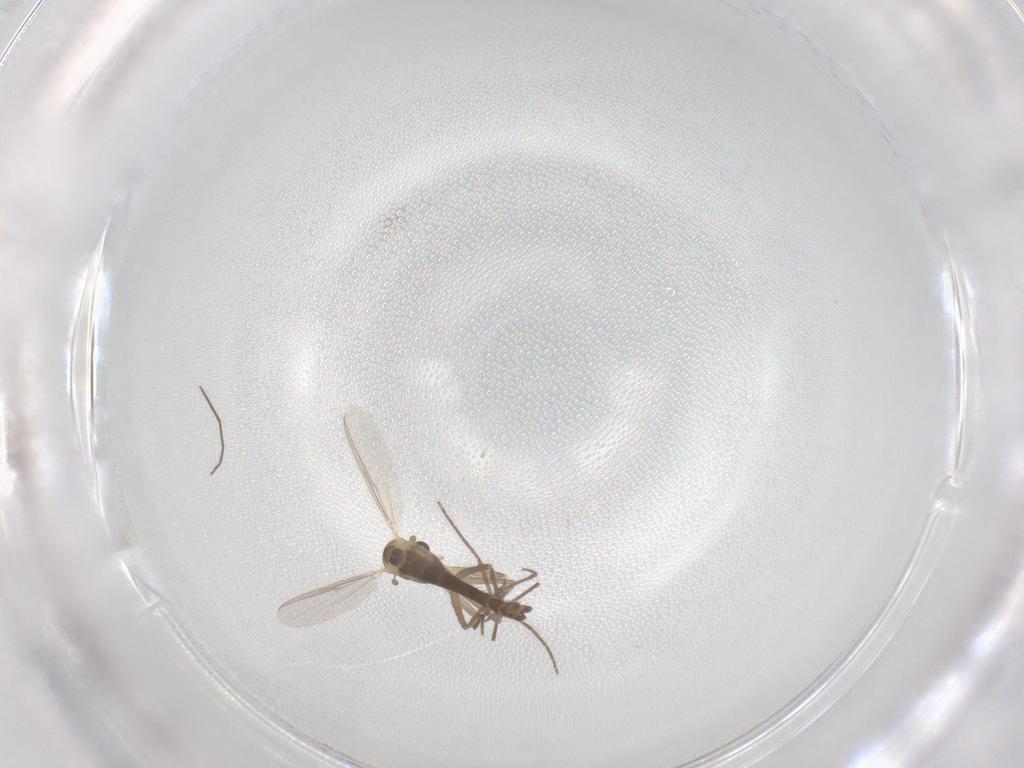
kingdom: Animalia
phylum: Arthropoda
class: Insecta
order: Diptera
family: Chironomidae
